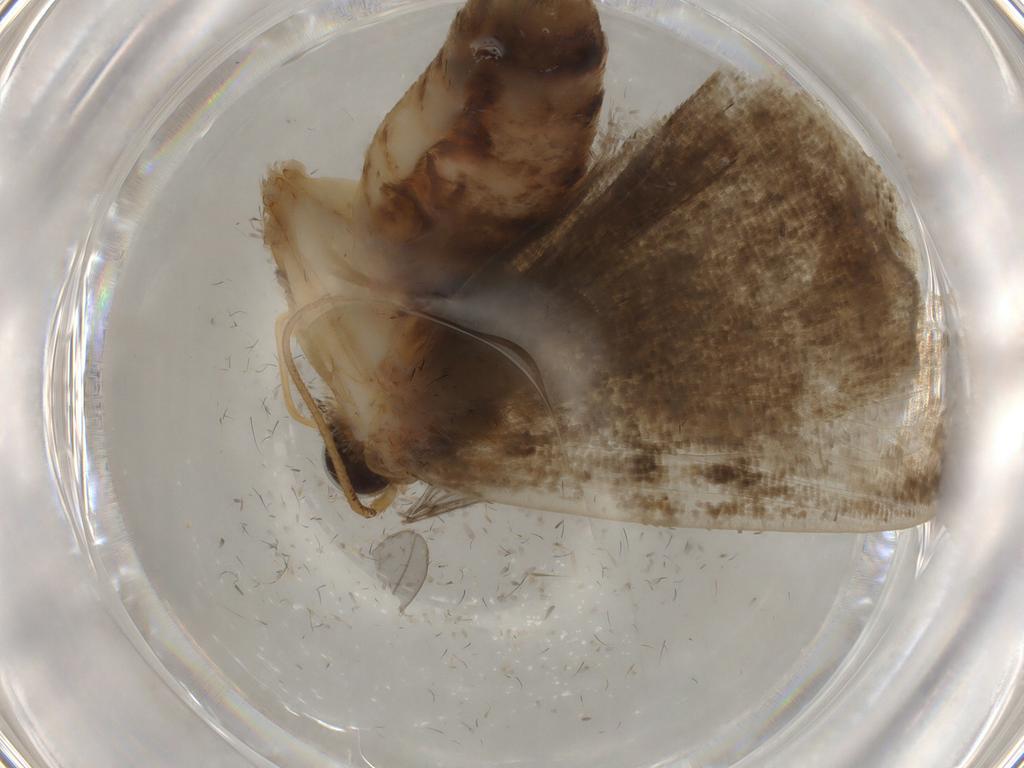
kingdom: Animalia
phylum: Arthropoda
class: Insecta
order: Lepidoptera
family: Erebidae
